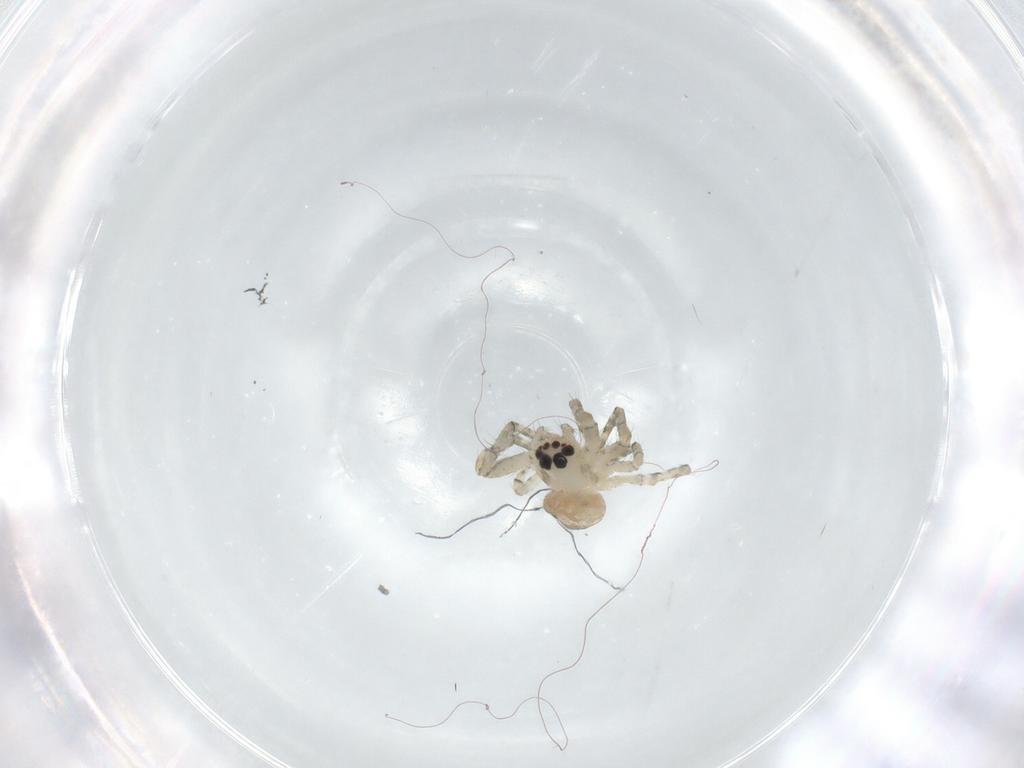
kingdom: Animalia
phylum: Arthropoda
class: Arachnida
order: Araneae
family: Araneidae
